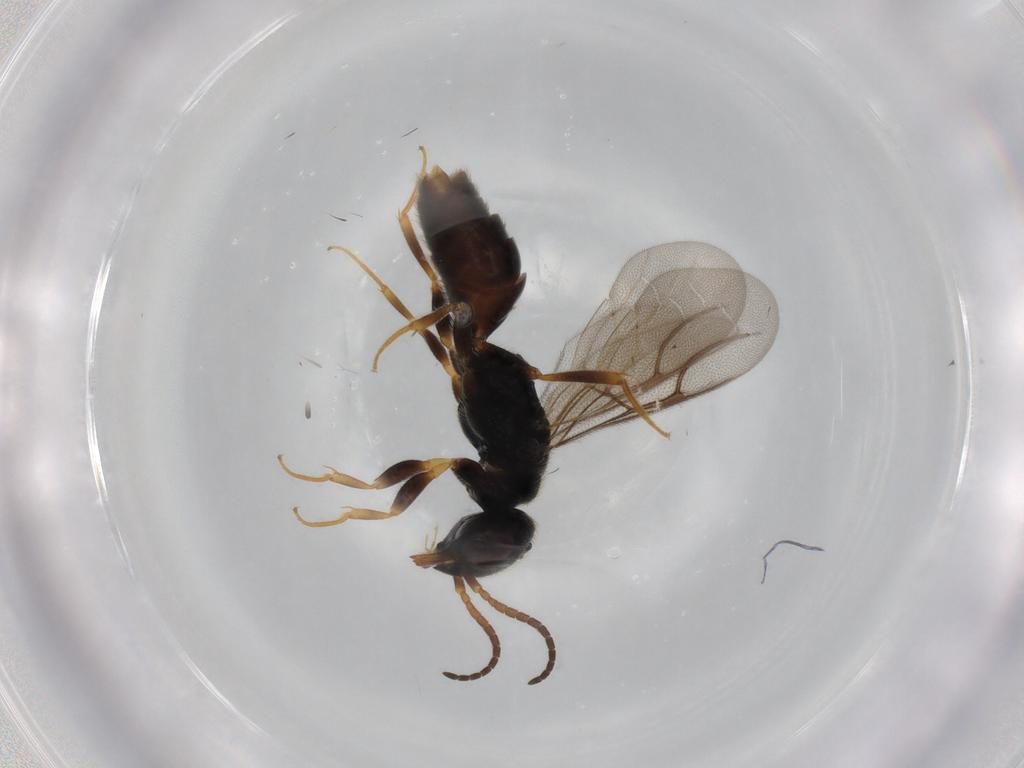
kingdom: Animalia
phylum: Arthropoda
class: Insecta
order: Hymenoptera
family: Bethylidae
